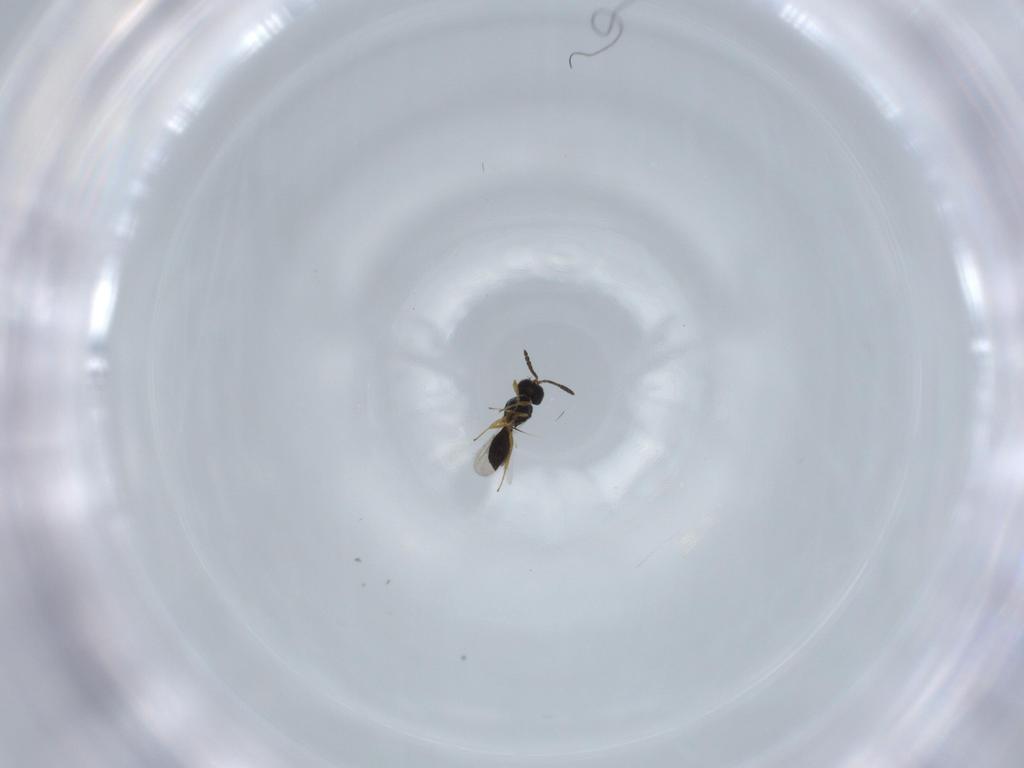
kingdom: Animalia
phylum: Arthropoda
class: Insecta
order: Hymenoptera
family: Scelionidae
